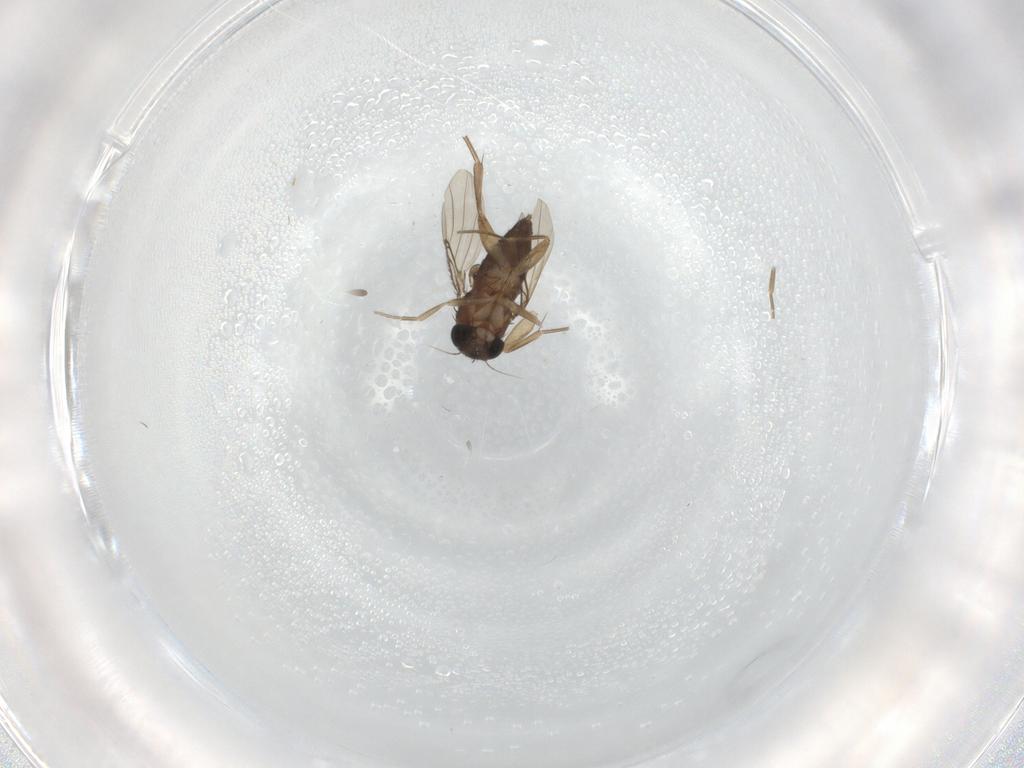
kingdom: Animalia
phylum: Arthropoda
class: Insecta
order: Diptera
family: Phoridae
